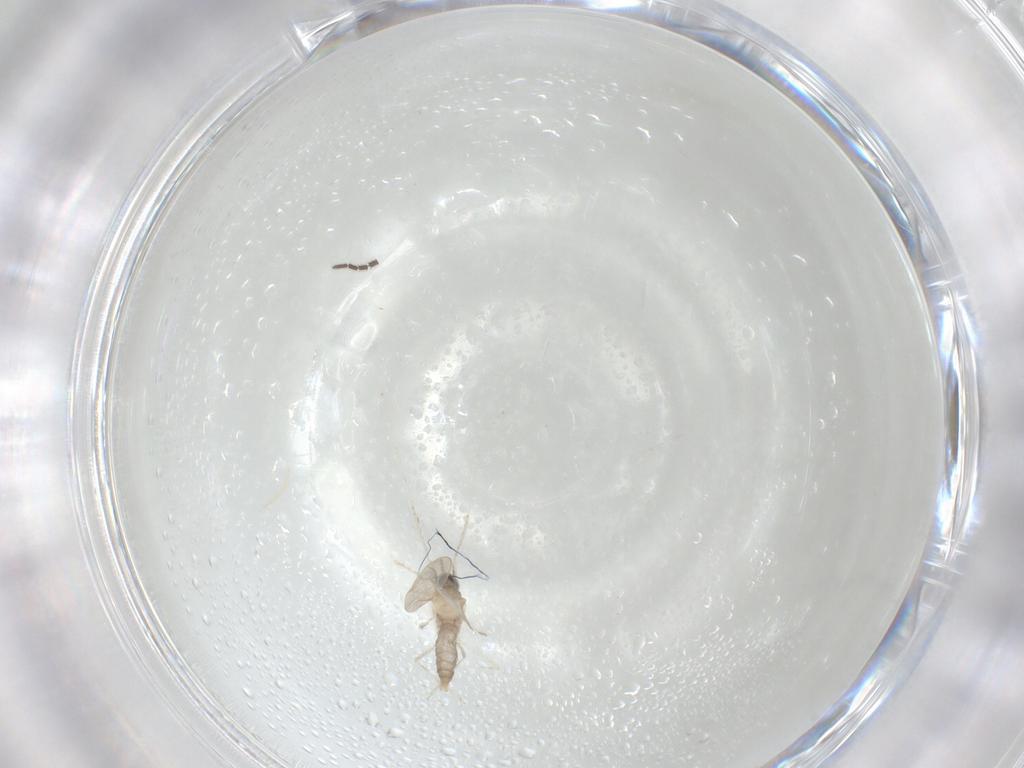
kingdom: Animalia
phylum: Arthropoda
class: Insecta
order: Diptera
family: Sciaridae
